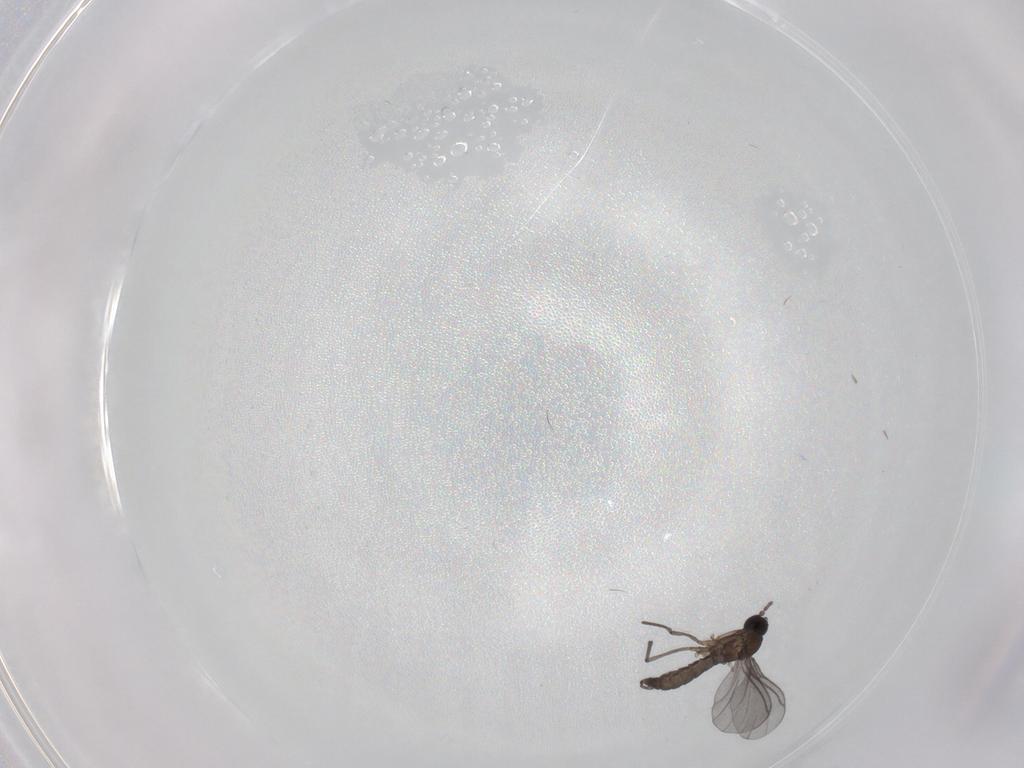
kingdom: Animalia
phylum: Arthropoda
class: Insecta
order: Diptera
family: Sciaridae
